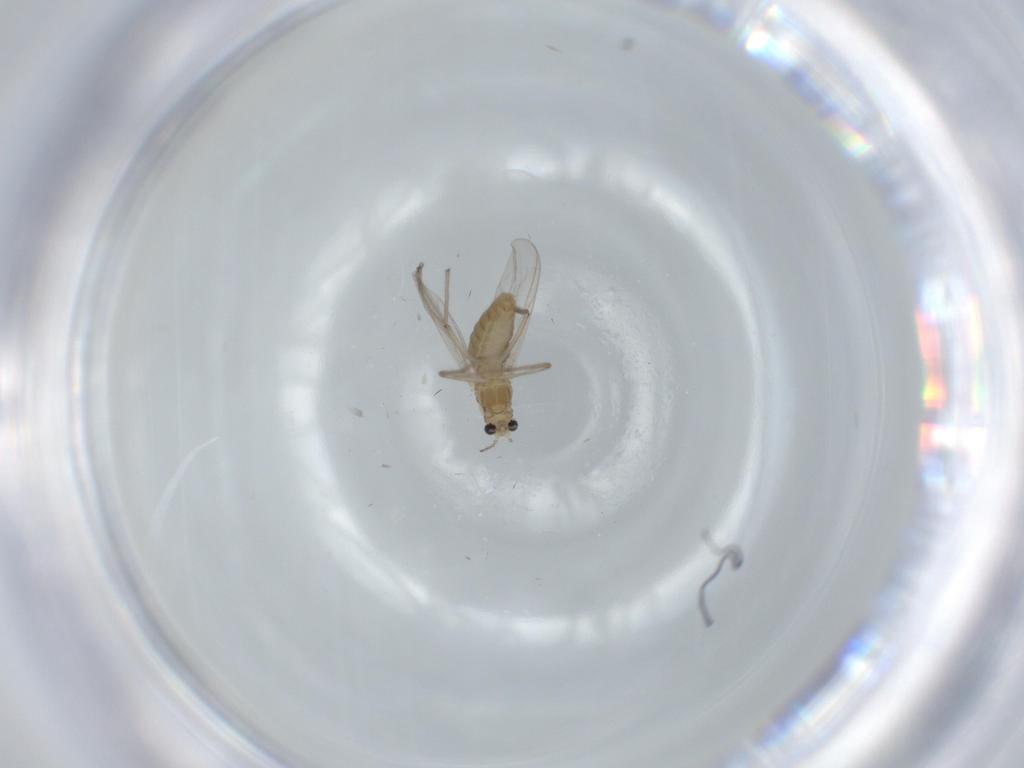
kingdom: Animalia
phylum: Arthropoda
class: Insecta
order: Diptera
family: Chironomidae
